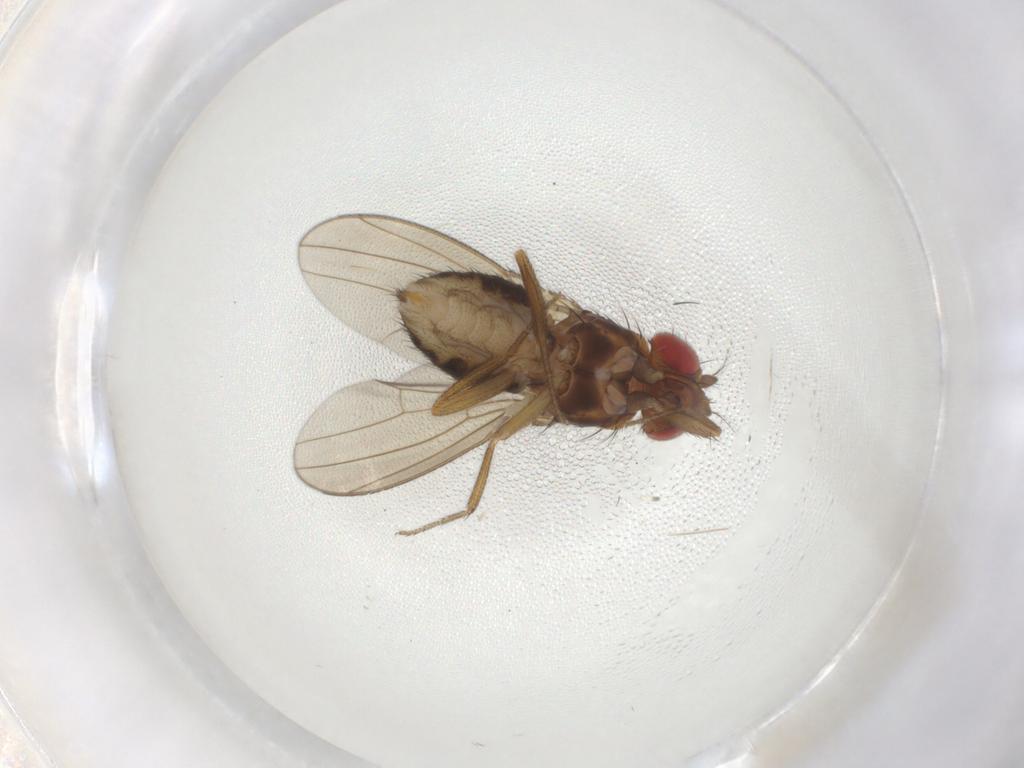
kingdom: Animalia
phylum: Arthropoda
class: Insecta
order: Diptera
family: Drosophilidae
